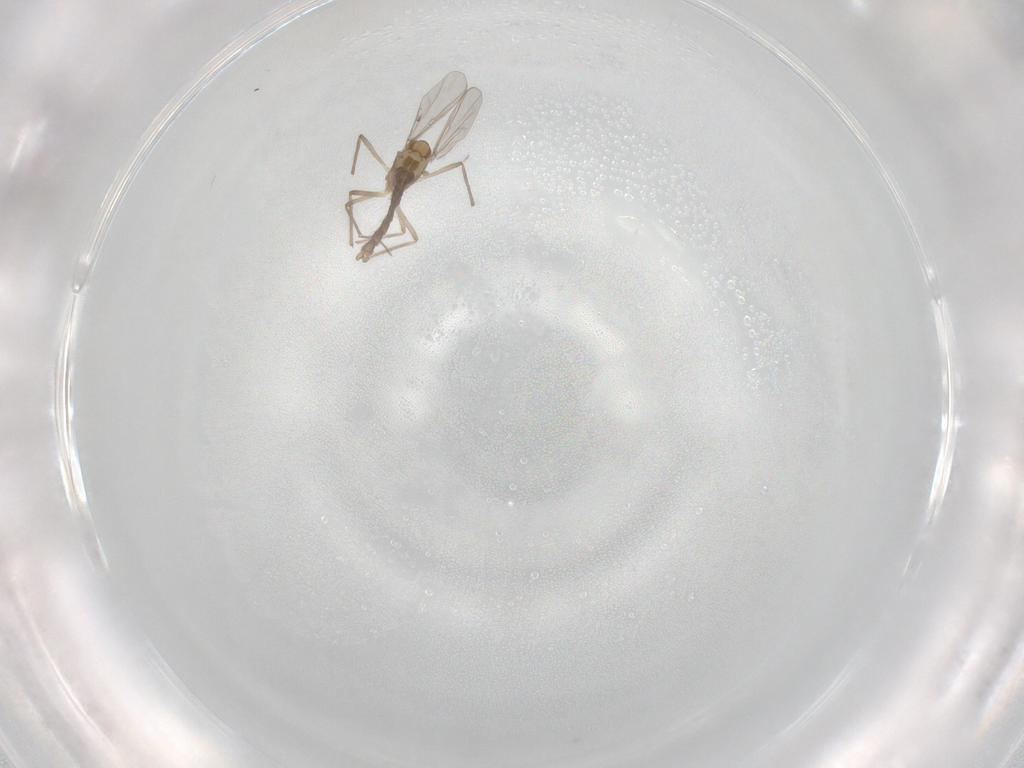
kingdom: Animalia
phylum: Arthropoda
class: Insecta
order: Diptera
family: Chironomidae
